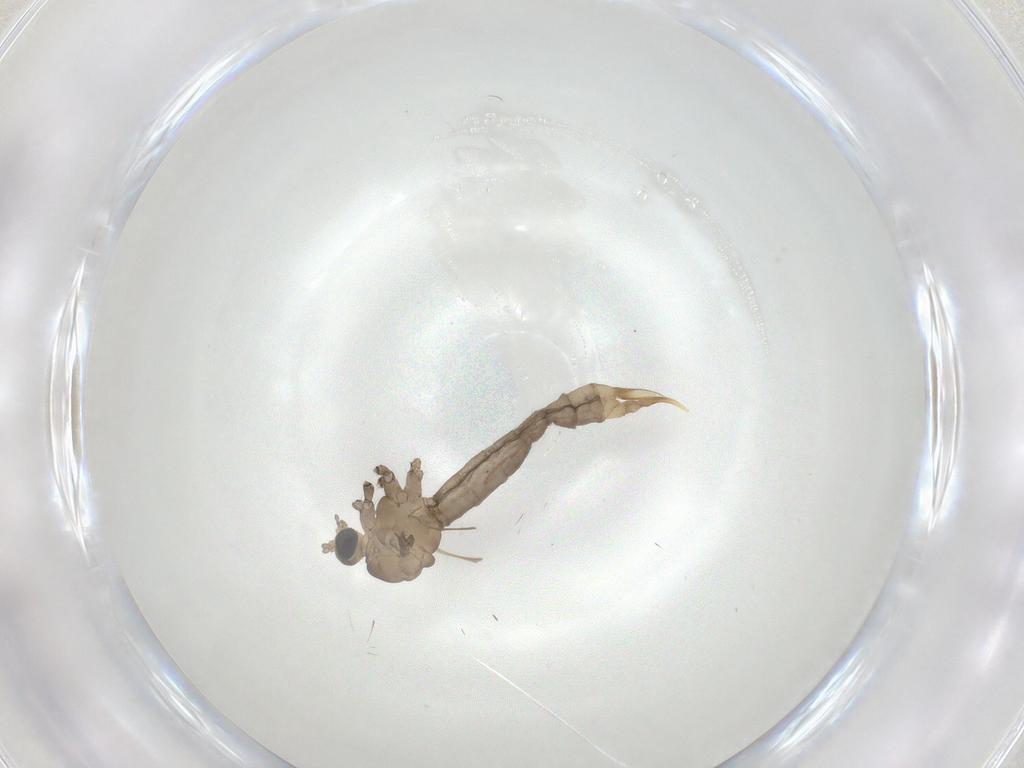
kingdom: Animalia
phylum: Arthropoda
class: Insecta
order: Diptera
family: Limoniidae
